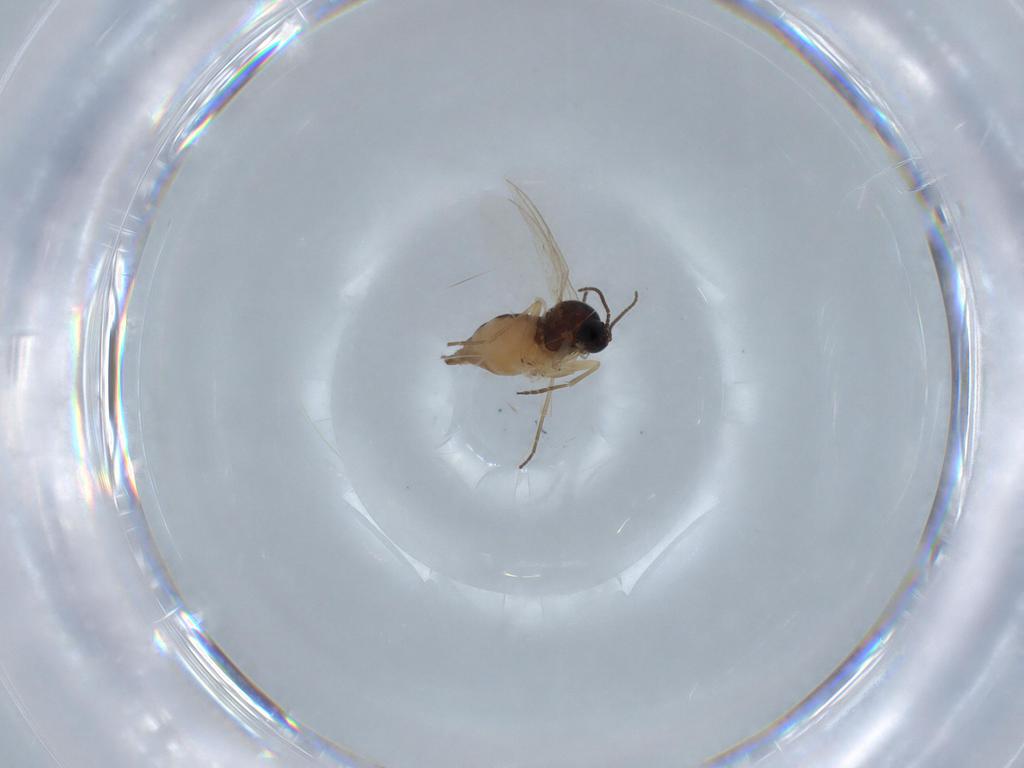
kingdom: Animalia
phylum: Arthropoda
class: Insecta
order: Diptera
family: Sciaridae
